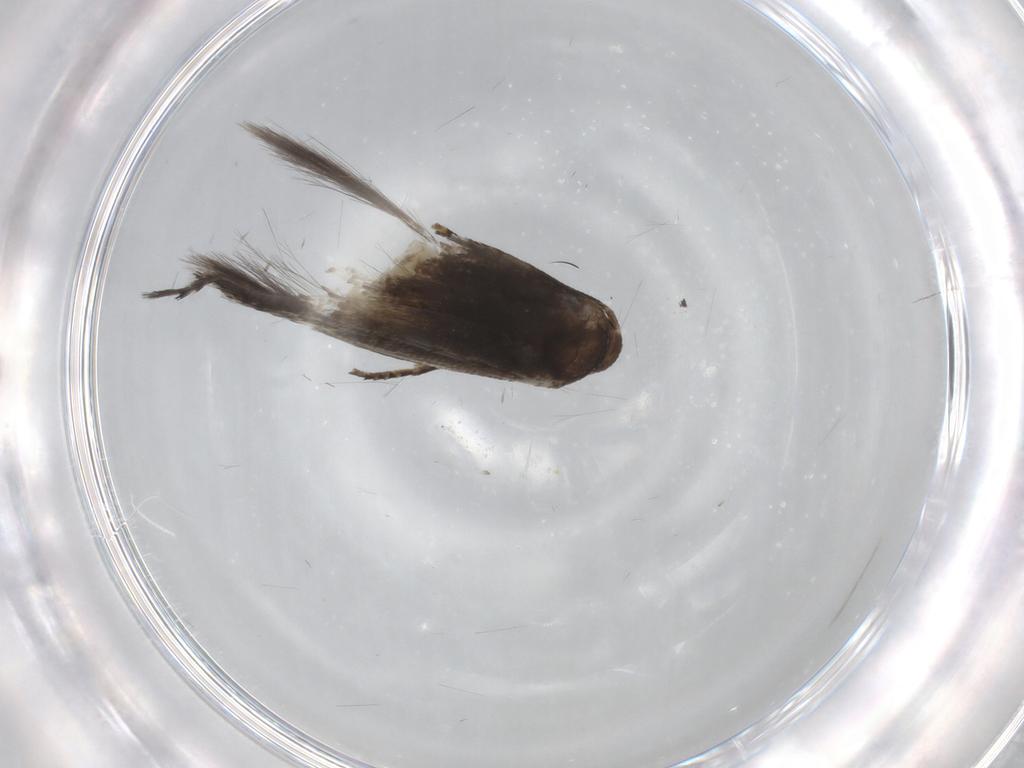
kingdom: Animalia
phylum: Arthropoda
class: Insecta
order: Lepidoptera
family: Elachistidae
